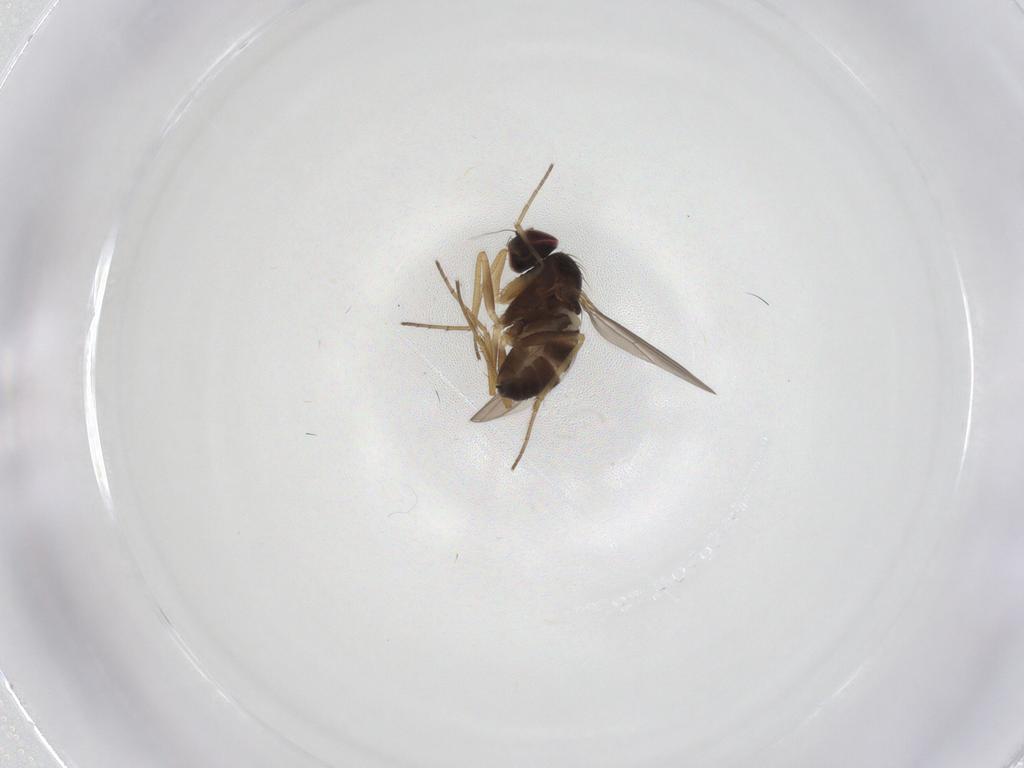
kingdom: Animalia
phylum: Arthropoda
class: Insecta
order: Diptera
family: Dolichopodidae
